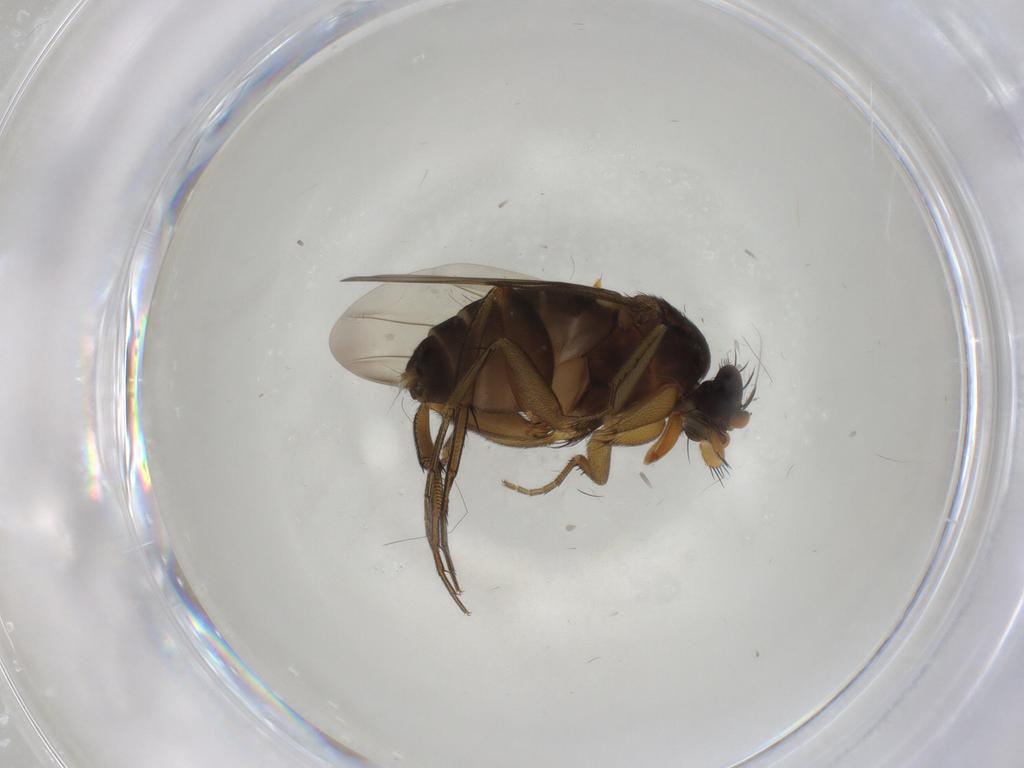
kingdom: Animalia
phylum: Arthropoda
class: Insecta
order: Diptera
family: Phoridae
